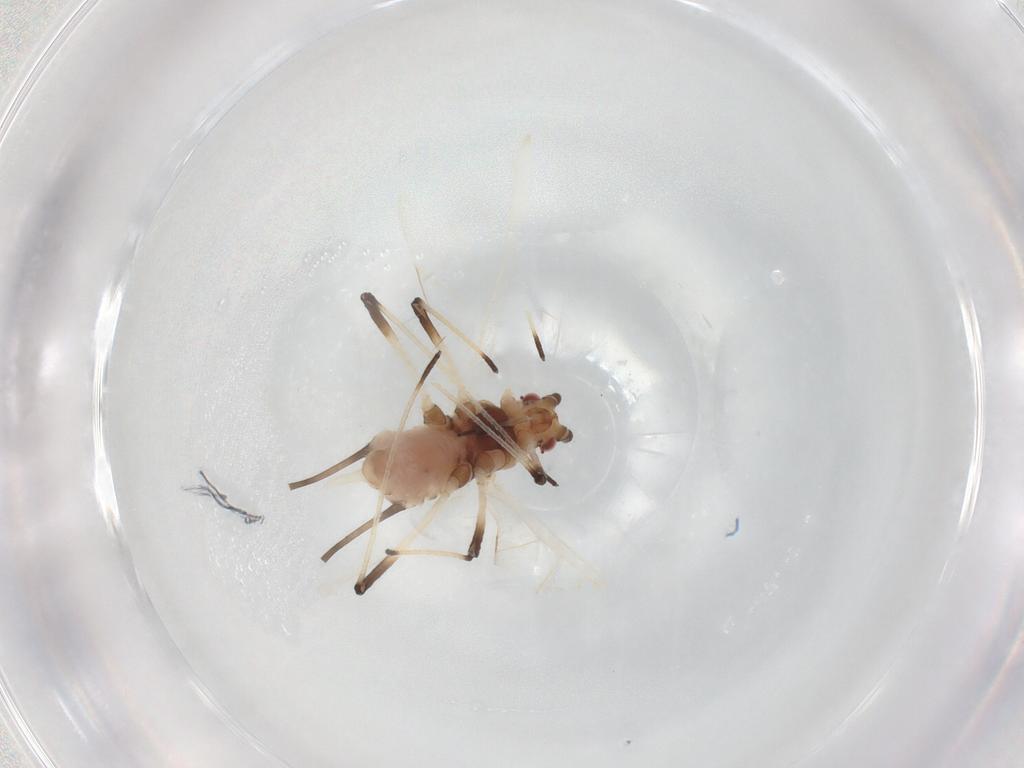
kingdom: Animalia
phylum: Arthropoda
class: Insecta
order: Hemiptera
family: Aphididae
